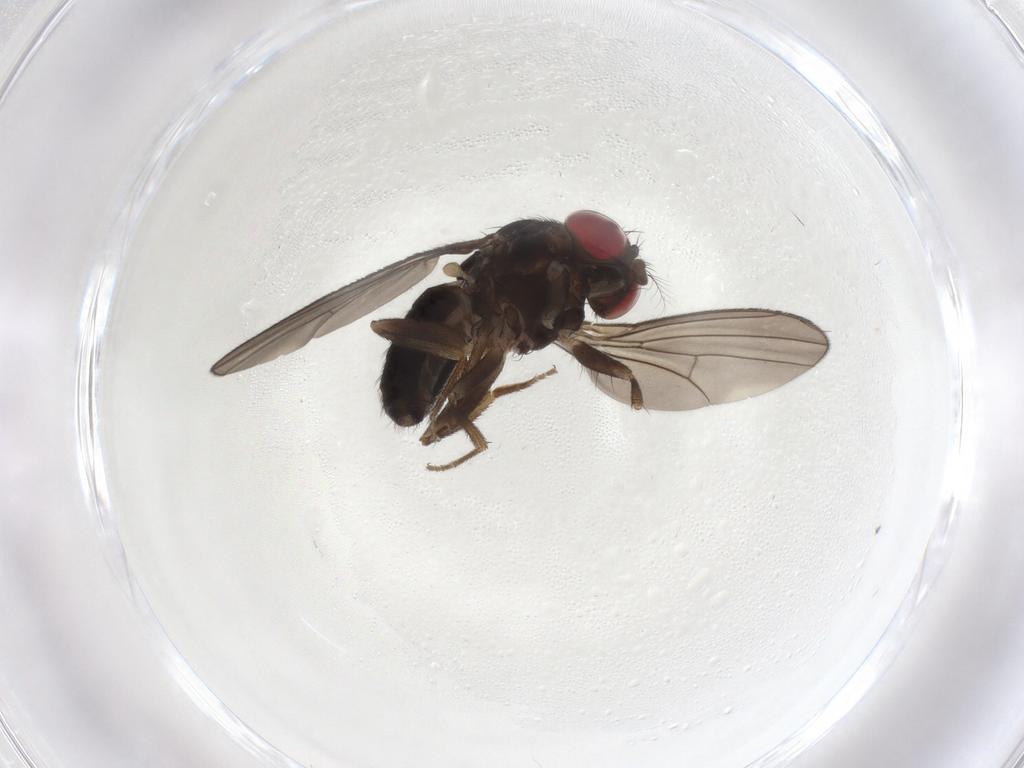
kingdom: Animalia
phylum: Arthropoda
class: Insecta
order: Diptera
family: Drosophilidae
